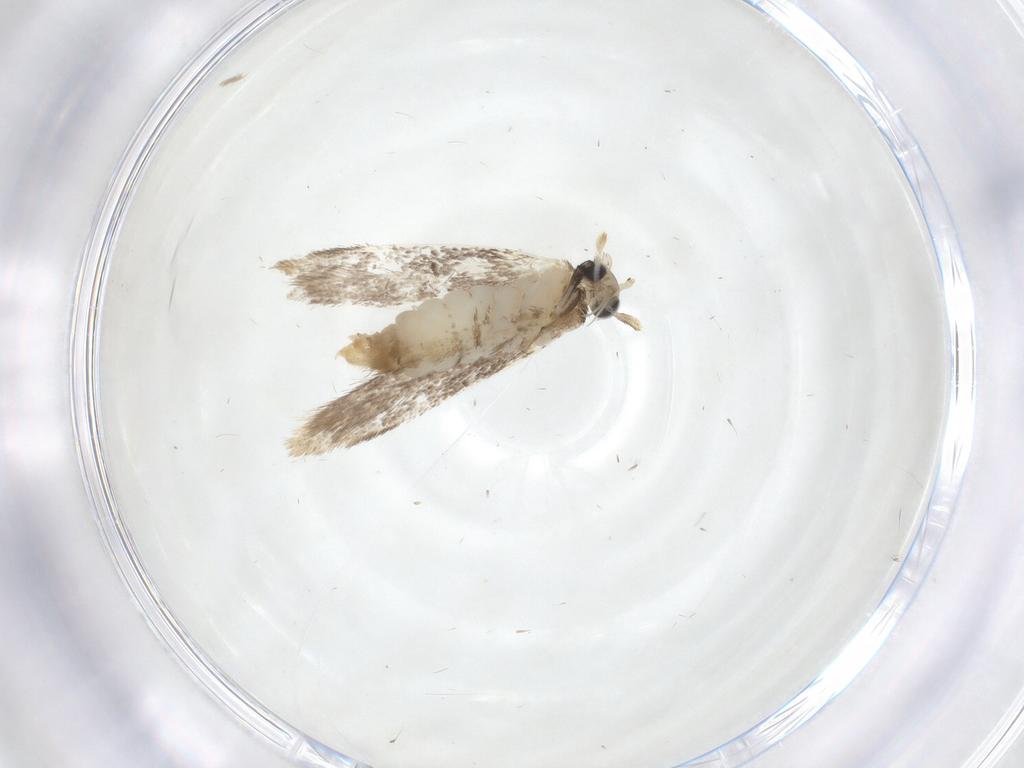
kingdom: Animalia
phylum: Arthropoda
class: Insecta
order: Lepidoptera
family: Dryadaulidae
